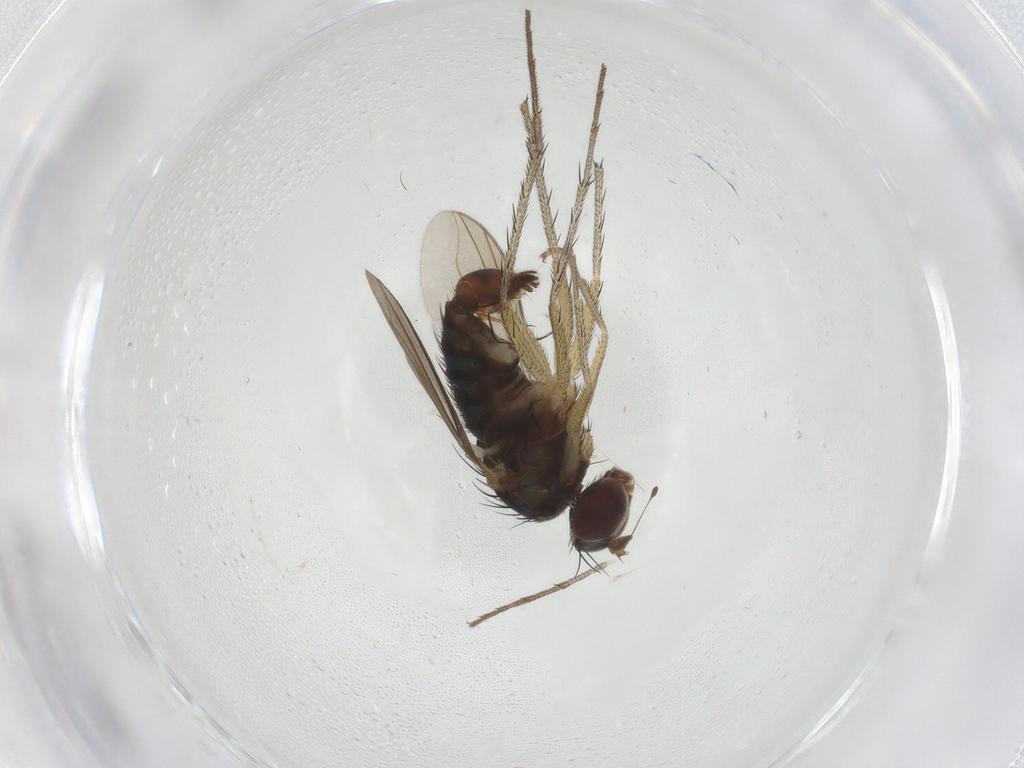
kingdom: Animalia
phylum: Arthropoda
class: Insecta
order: Diptera
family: Dolichopodidae
